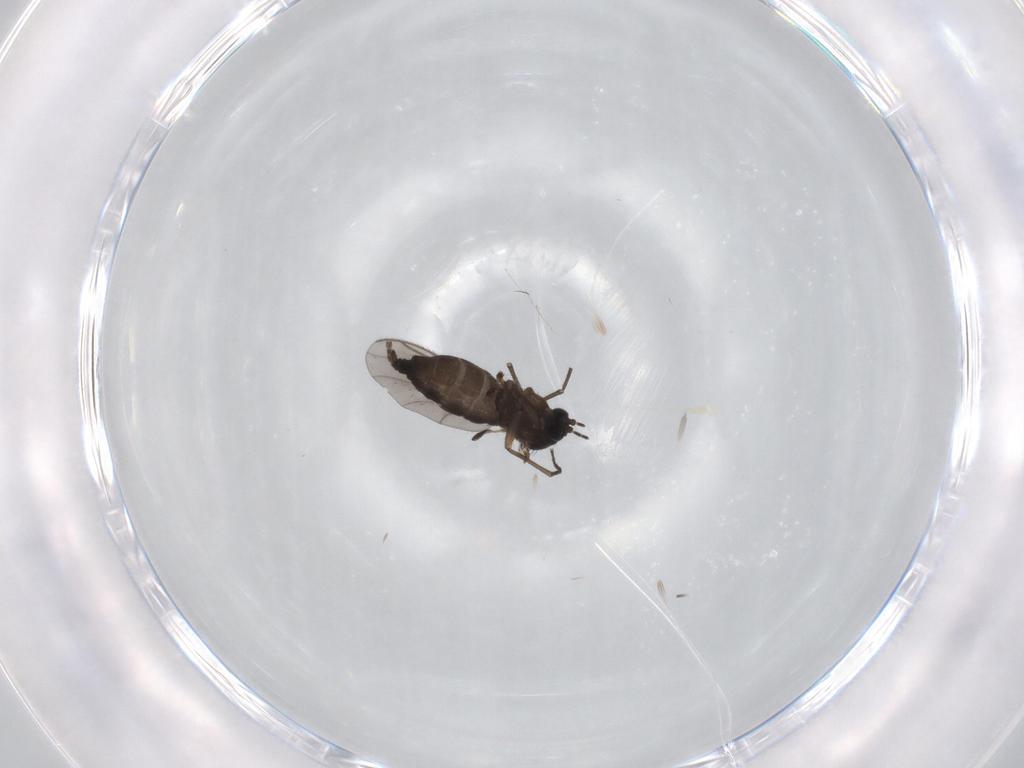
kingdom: Animalia
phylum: Arthropoda
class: Insecta
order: Diptera
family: Sciaridae
